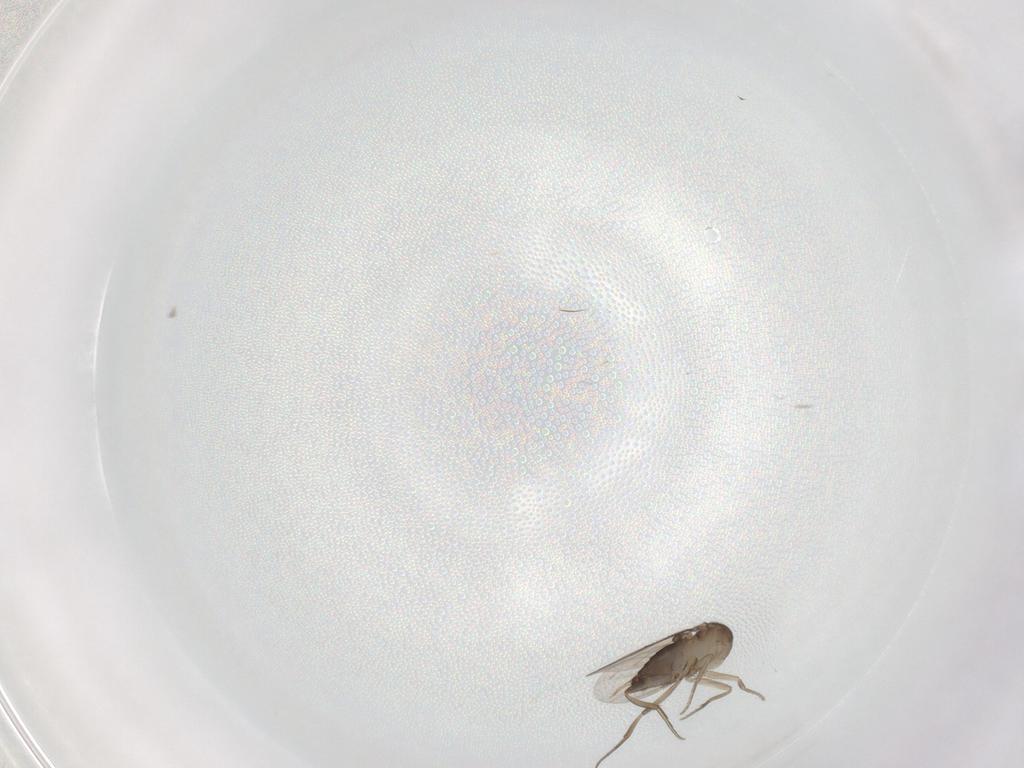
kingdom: Animalia
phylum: Arthropoda
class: Insecta
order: Diptera
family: Phoridae
